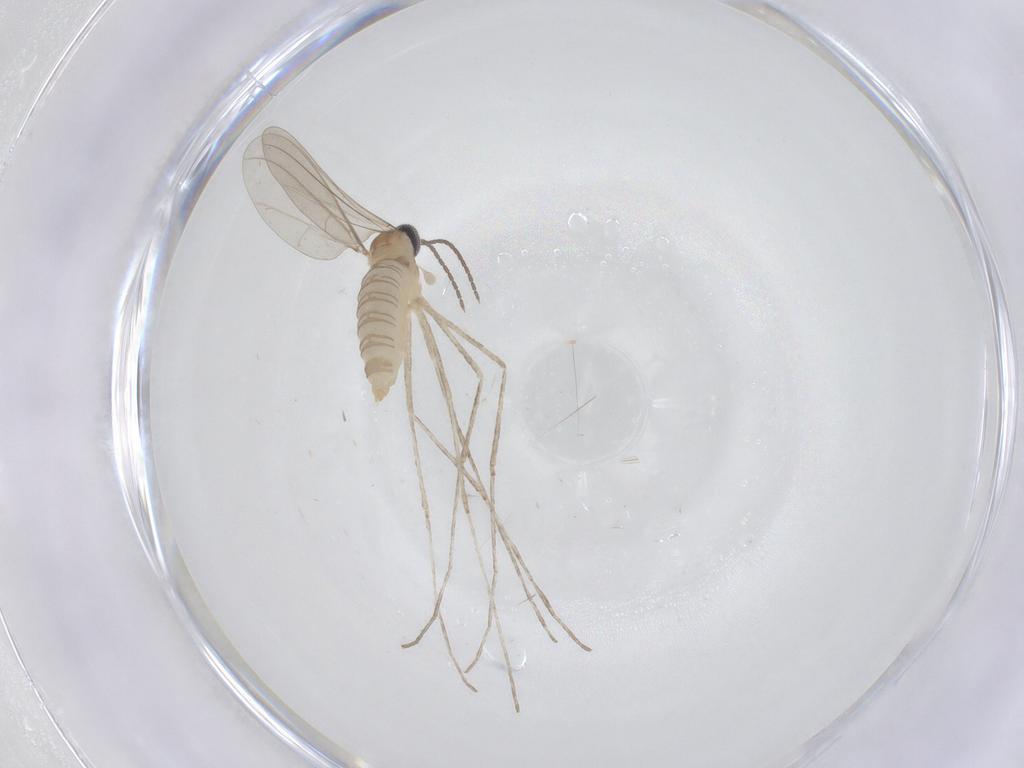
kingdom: Animalia
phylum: Arthropoda
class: Insecta
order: Diptera
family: Cecidomyiidae
